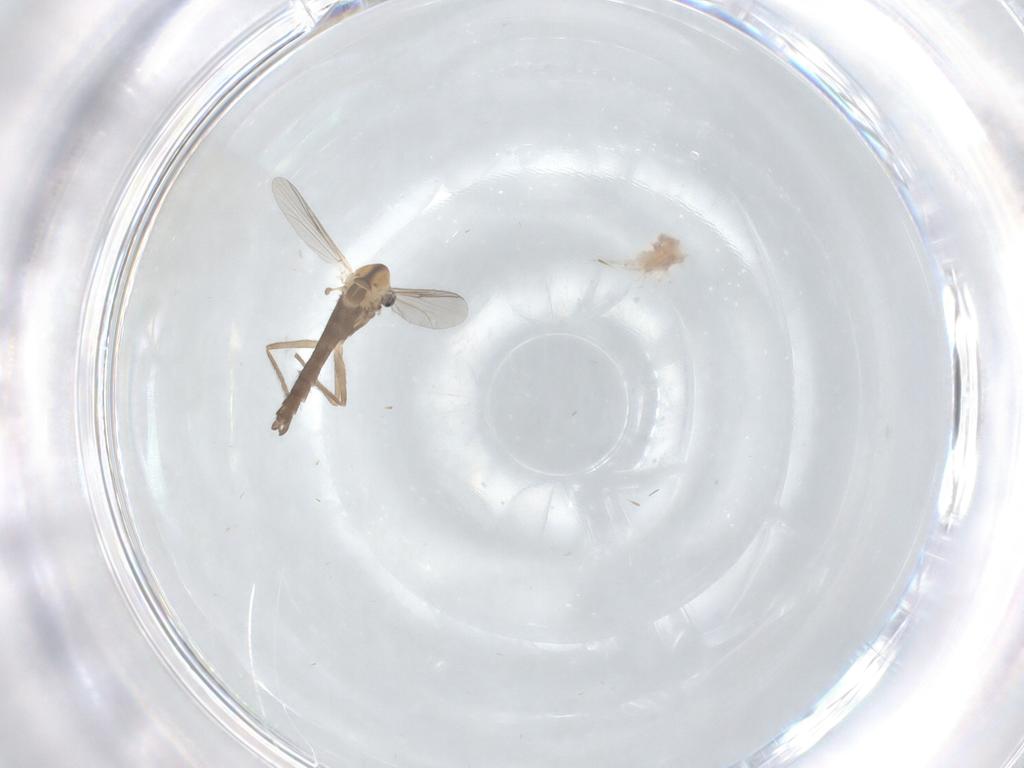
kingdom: Animalia
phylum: Arthropoda
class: Insecta
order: Diptera
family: Chironomidae
